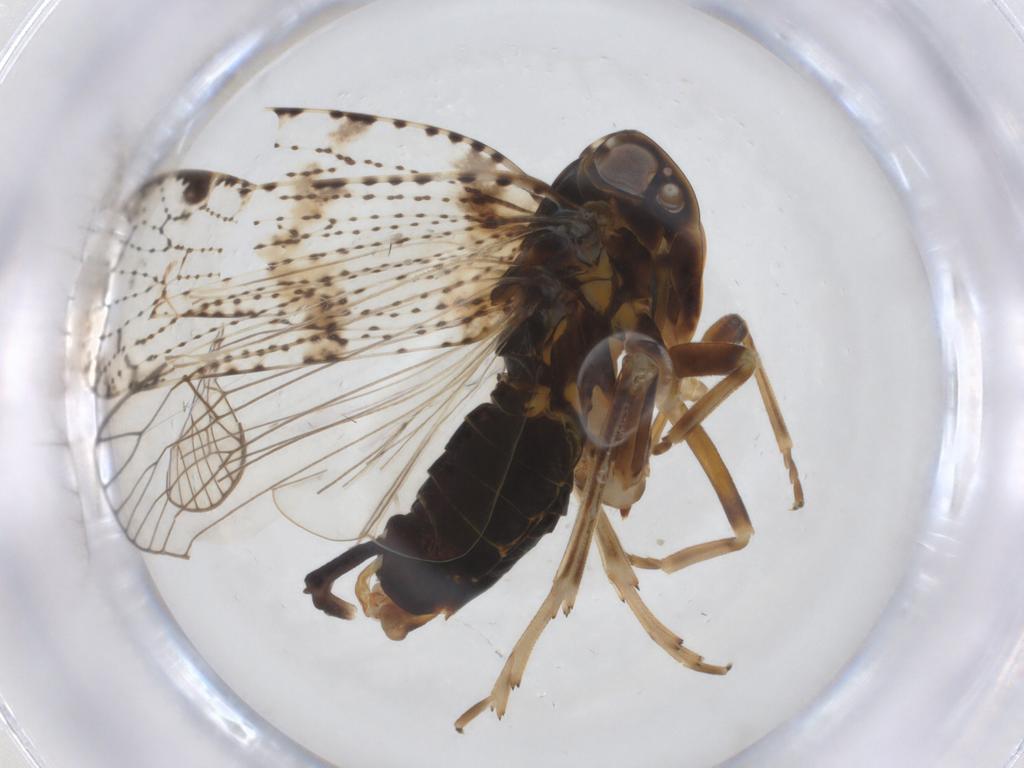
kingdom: Animalia
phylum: Arthropoda
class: Insecta
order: Hemiptera
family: Cixiidae
